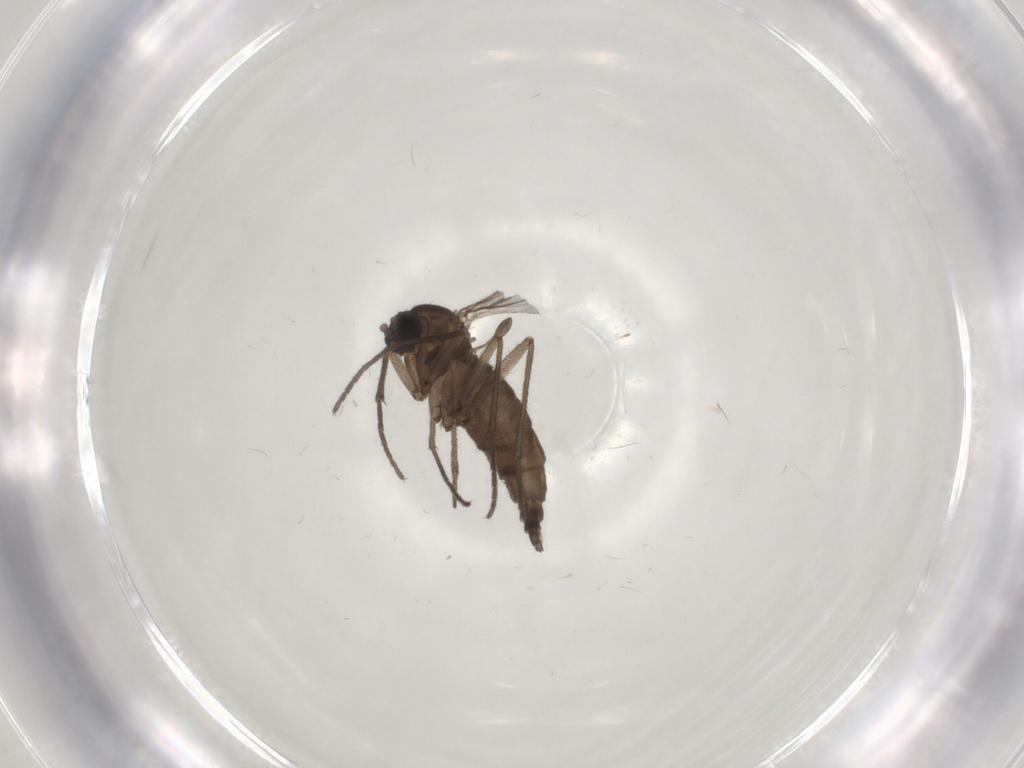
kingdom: Animalia
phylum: Arthropoda
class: Insecta
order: Diptera
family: Sciaridae
